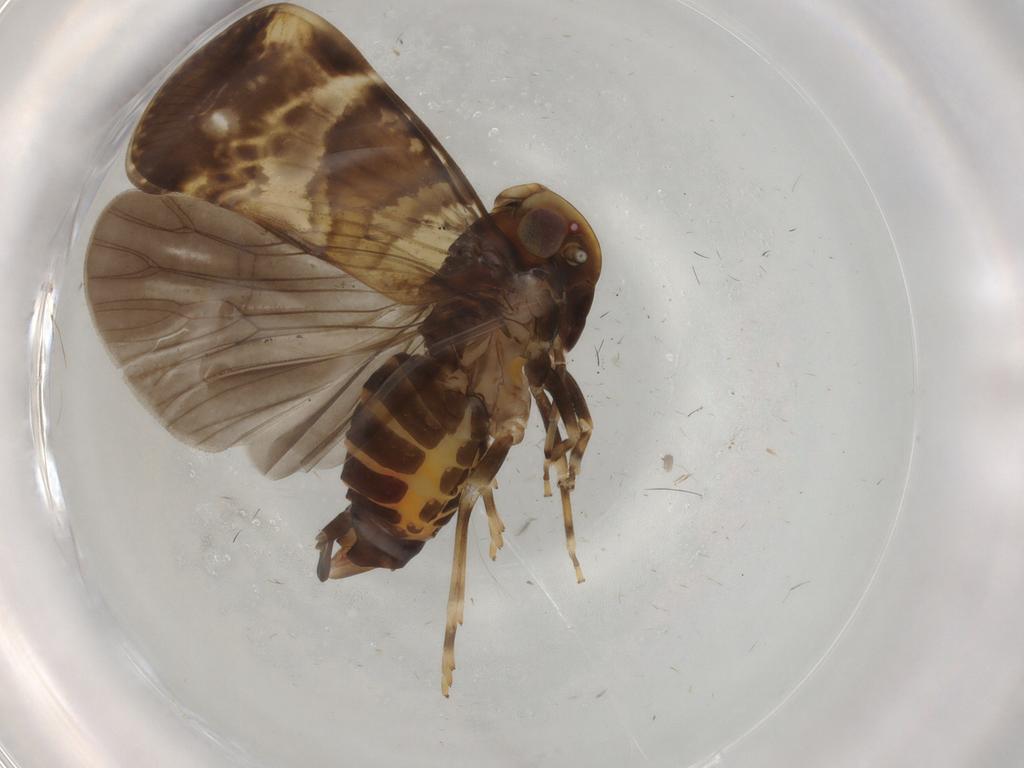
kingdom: Animalia
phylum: Arthropoda
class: Insecta
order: Hemiptera
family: Cixiidae
